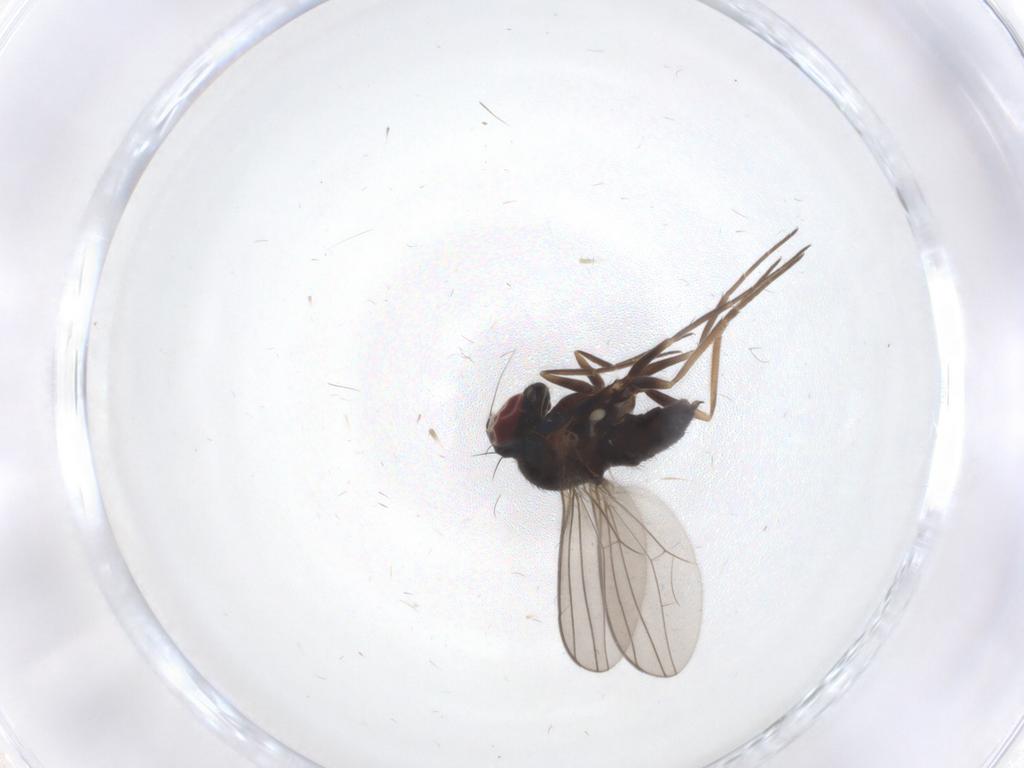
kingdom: Animalia
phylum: Arthropoda
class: Insecta
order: Diptera
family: Dolichopodidae
